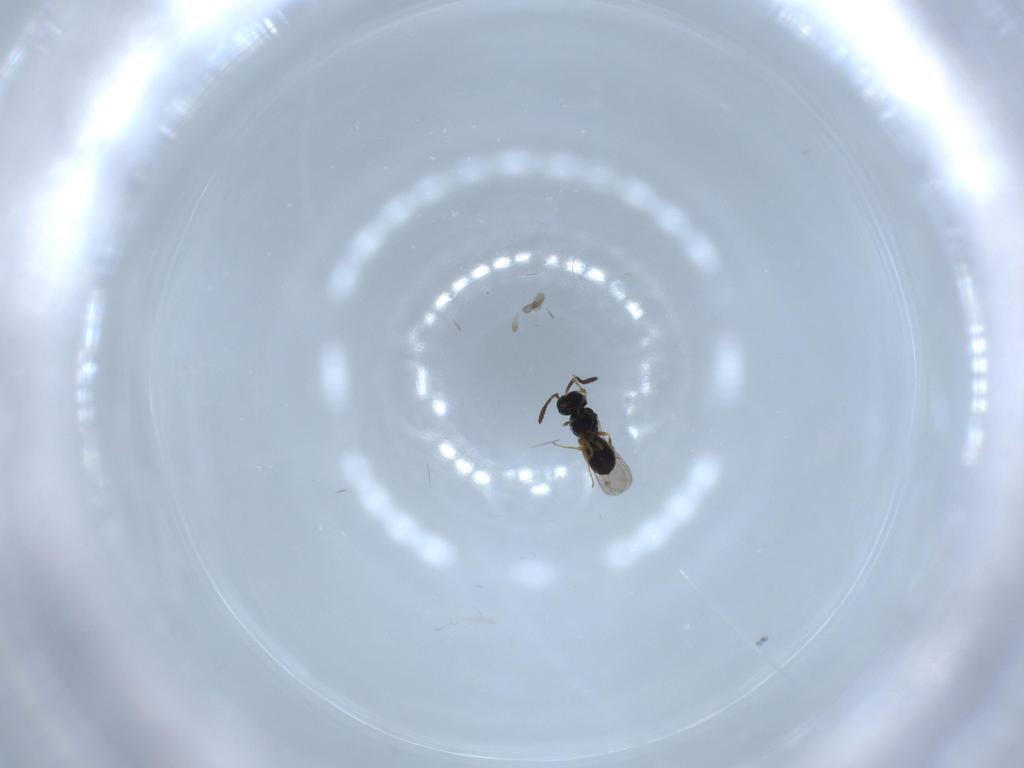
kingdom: Animalia
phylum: Arthropoda
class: Insecta
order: Hymenoptera
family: Scelionidae
